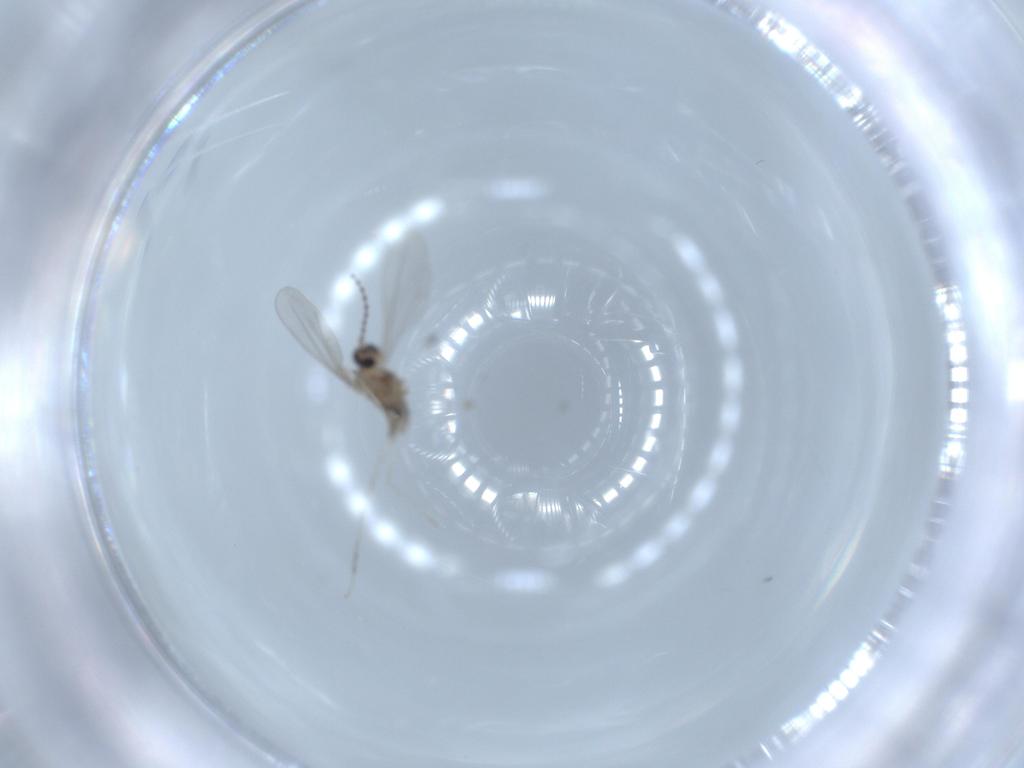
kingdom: Animalia
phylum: Arthropoda
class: Insecta
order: Diptera
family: Cecidomyiidae
